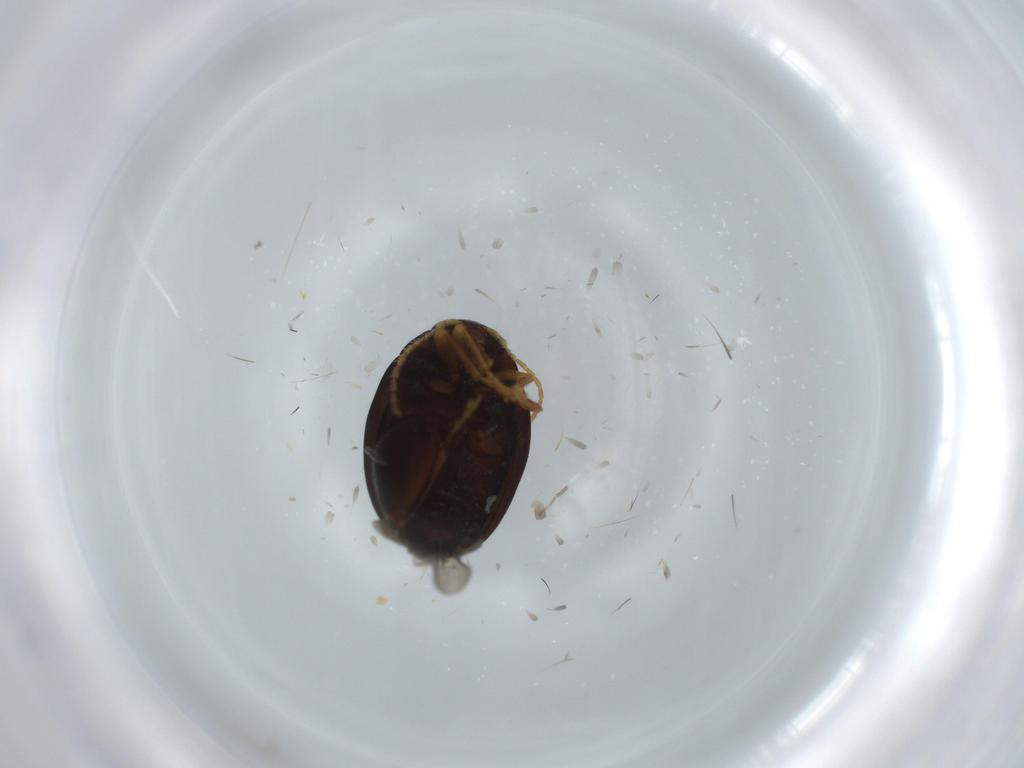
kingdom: Animalia
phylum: Arthropoda
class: Insecta
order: Coleoptera
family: Chrysomelidae
